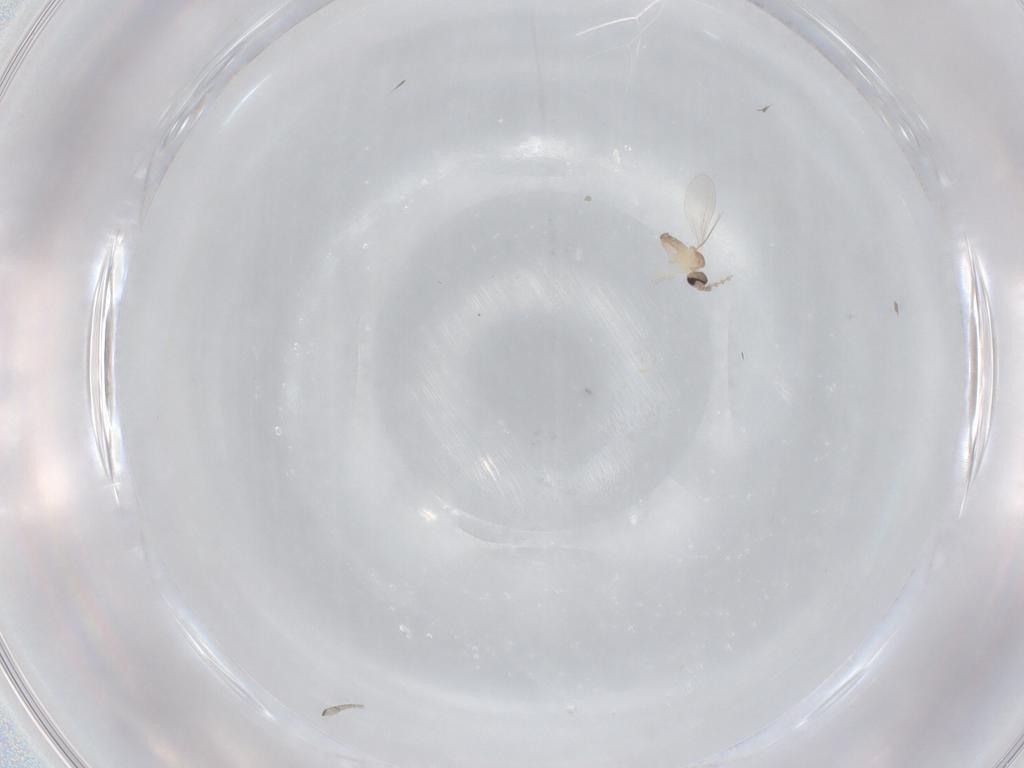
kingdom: Animalia
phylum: Arthropoda
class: Insecta
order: Diptera
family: Cecidomyiidae
